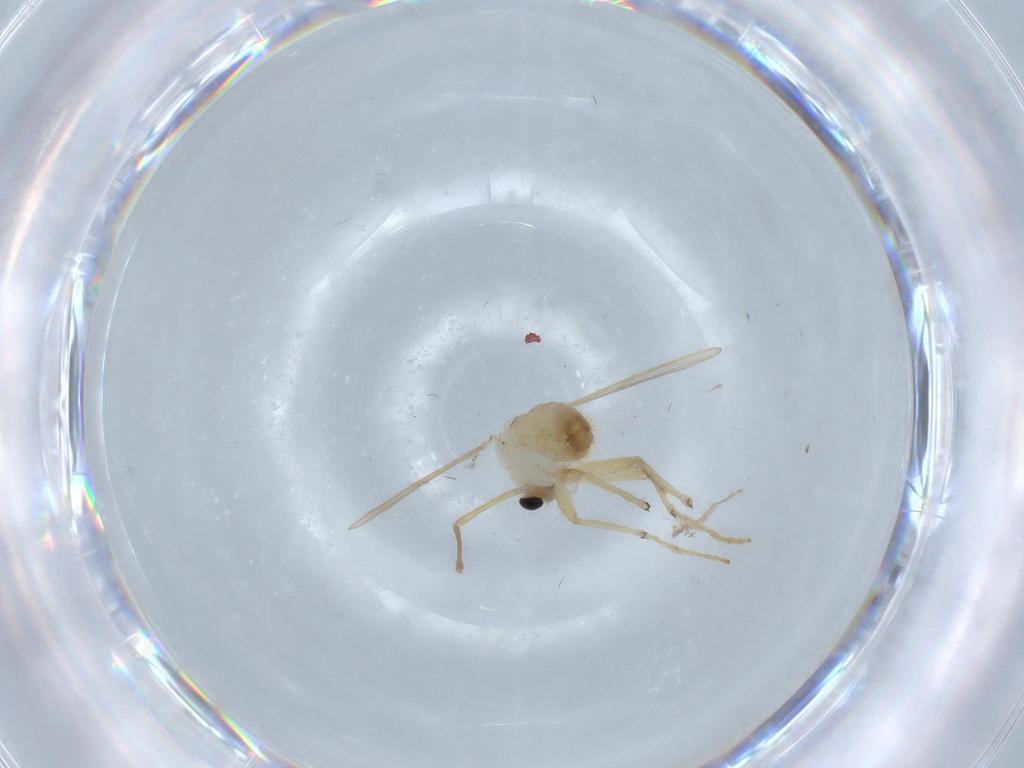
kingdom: Animalia
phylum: Arthropoda
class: Insecta
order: Diptera
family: Chironomidae
